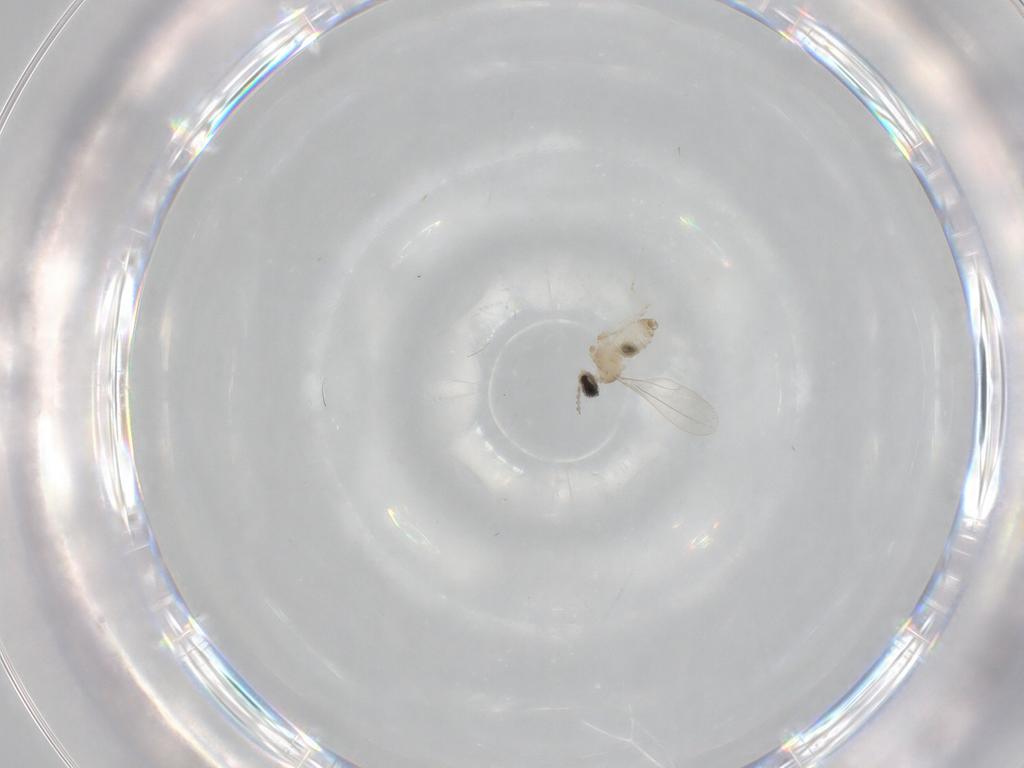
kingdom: Animalia
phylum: Arthropoda
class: Insecta
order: Diptera
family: Cecidomyiidae
